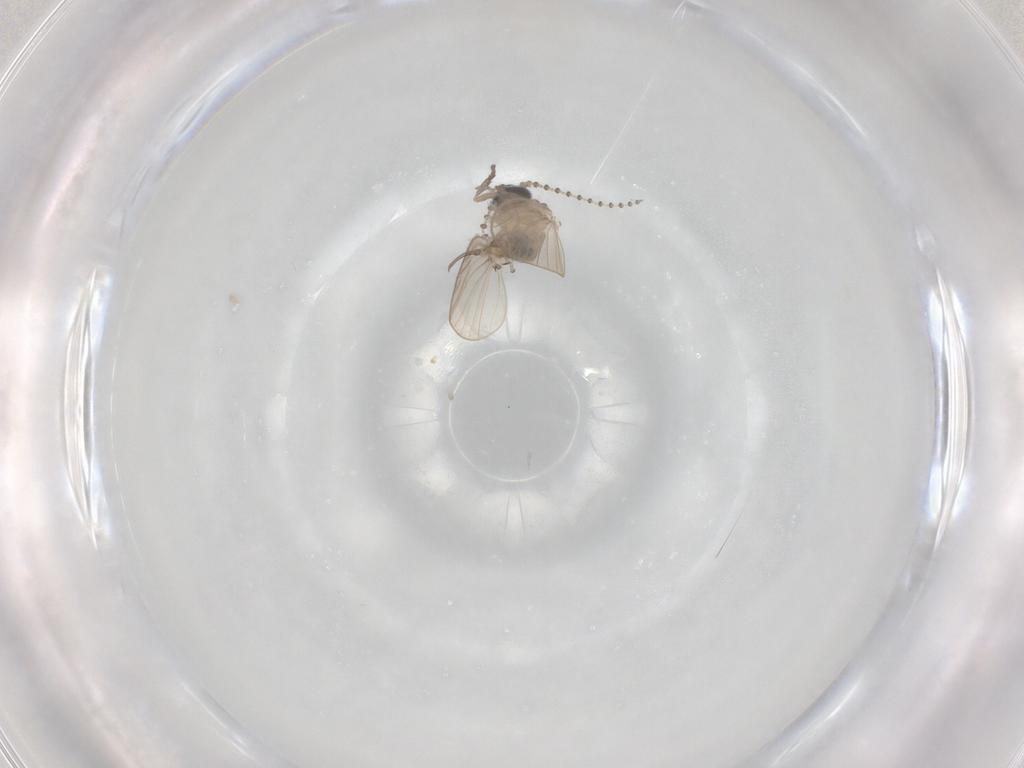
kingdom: Animalia
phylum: Arthropoda
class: Insecta
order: Diptera
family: Psychodidae
